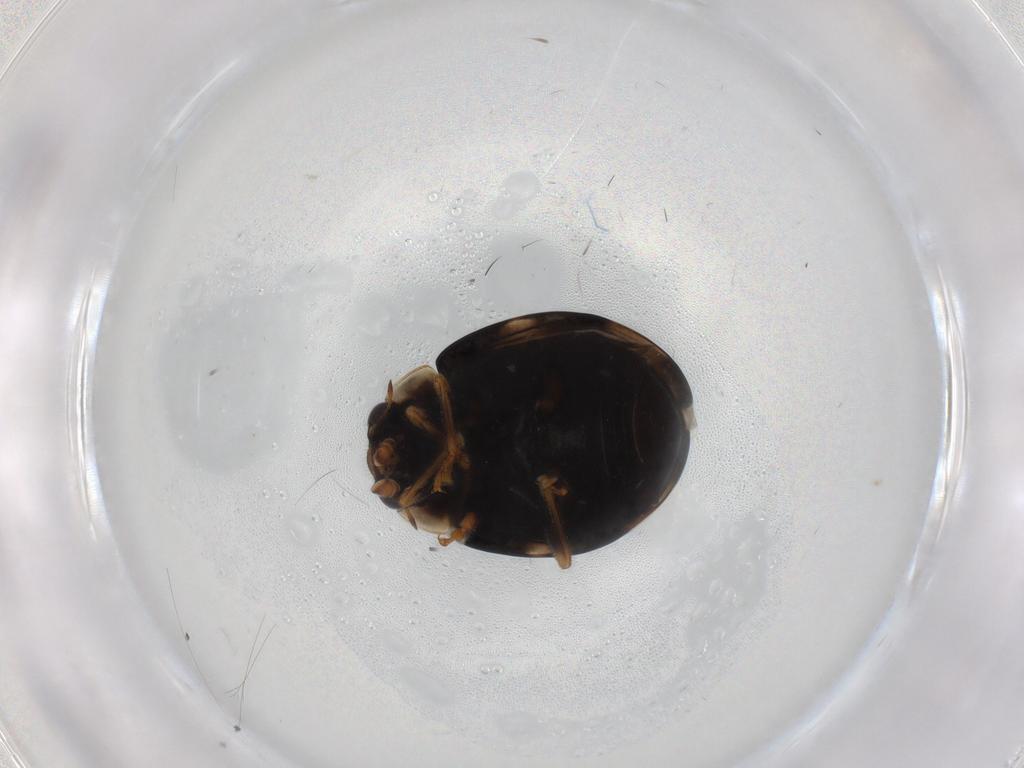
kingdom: Animalia
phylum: Arthropoda
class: Insecta
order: Coleoptera
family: Coccinellidae
